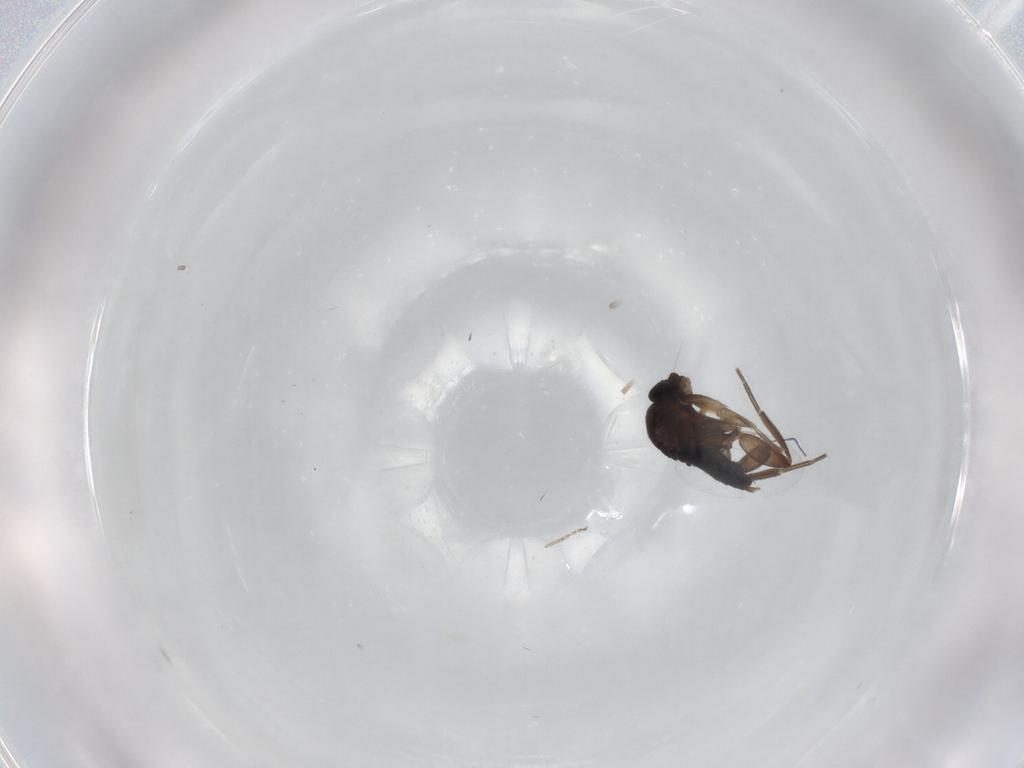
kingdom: Animalia
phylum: Arthropoda
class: Insecta
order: Diptera
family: Phoridae
